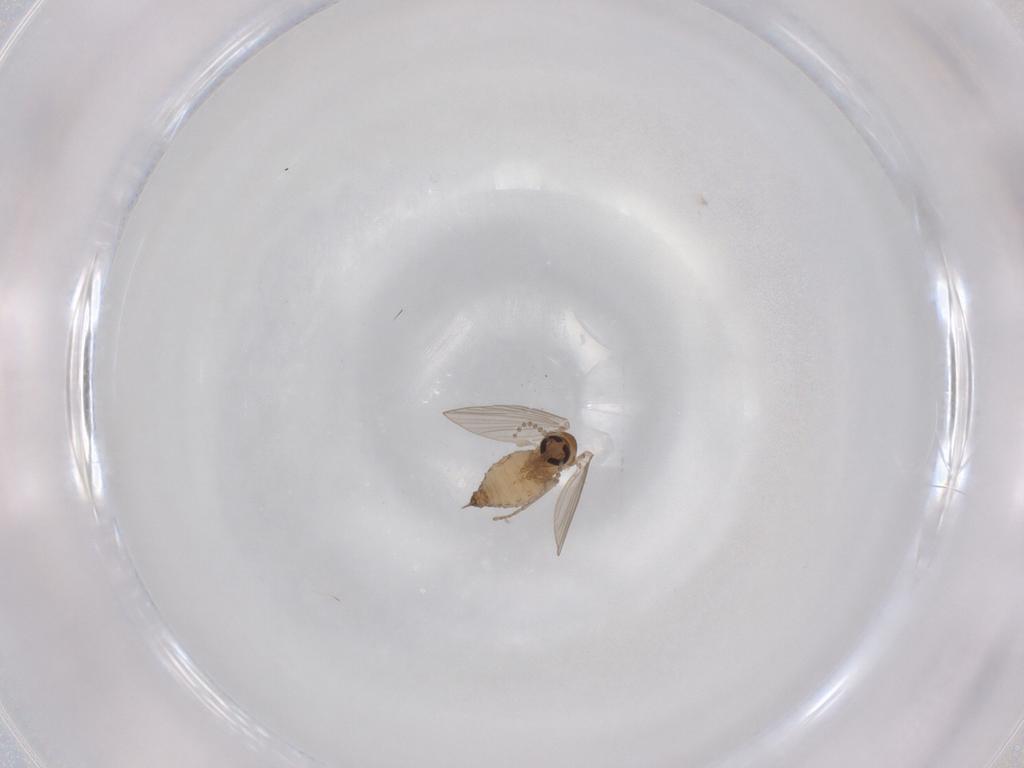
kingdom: Animalia
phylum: Arthropoda
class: Insecta
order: Diptera
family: Psychodidae
